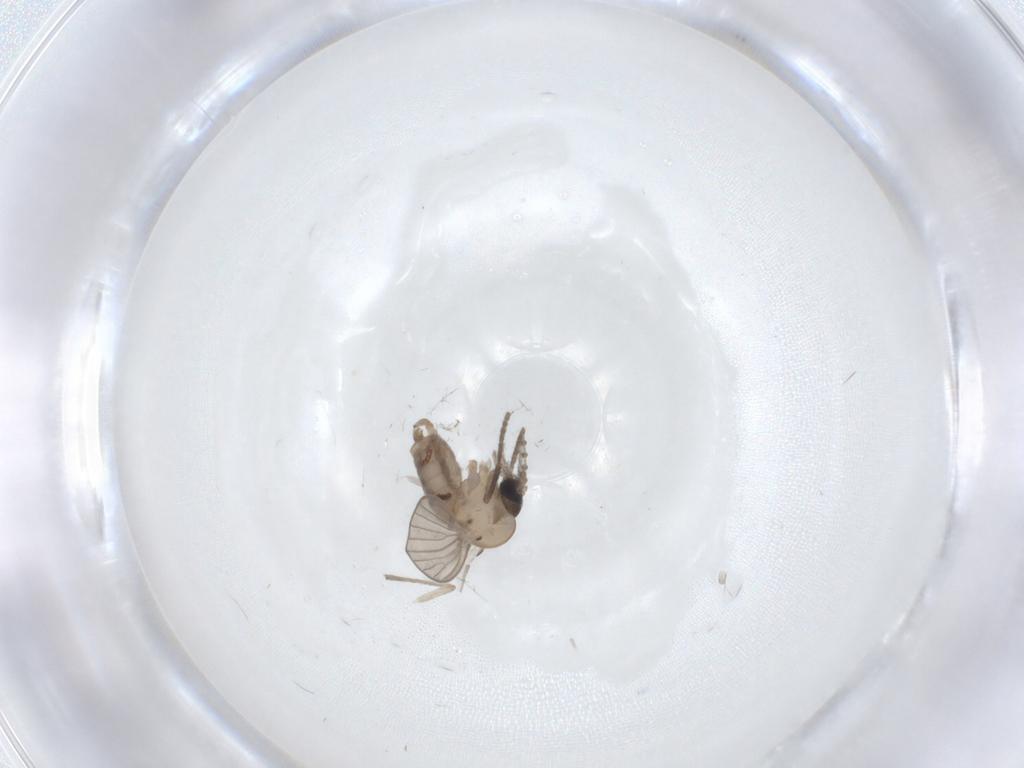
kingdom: Animalia
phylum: Arthropoda
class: Insecta
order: Diptera
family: Psychodidae
